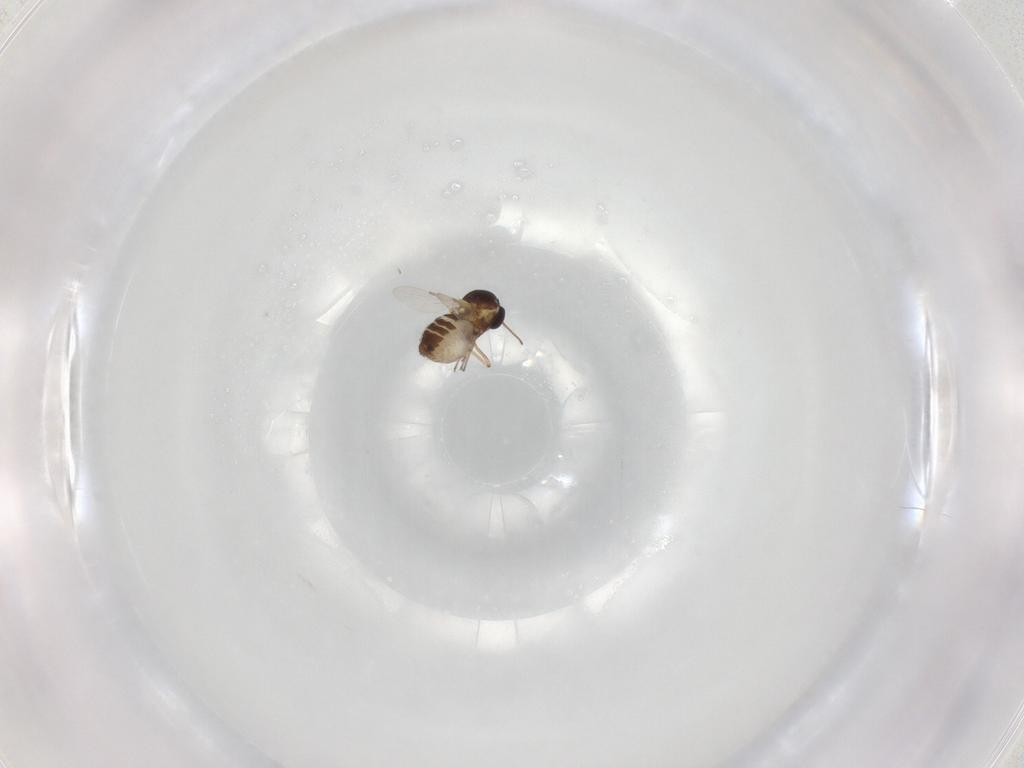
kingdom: Animalia
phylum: Arthropoda
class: Insecta
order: Diptera
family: Ceratopogonidae
